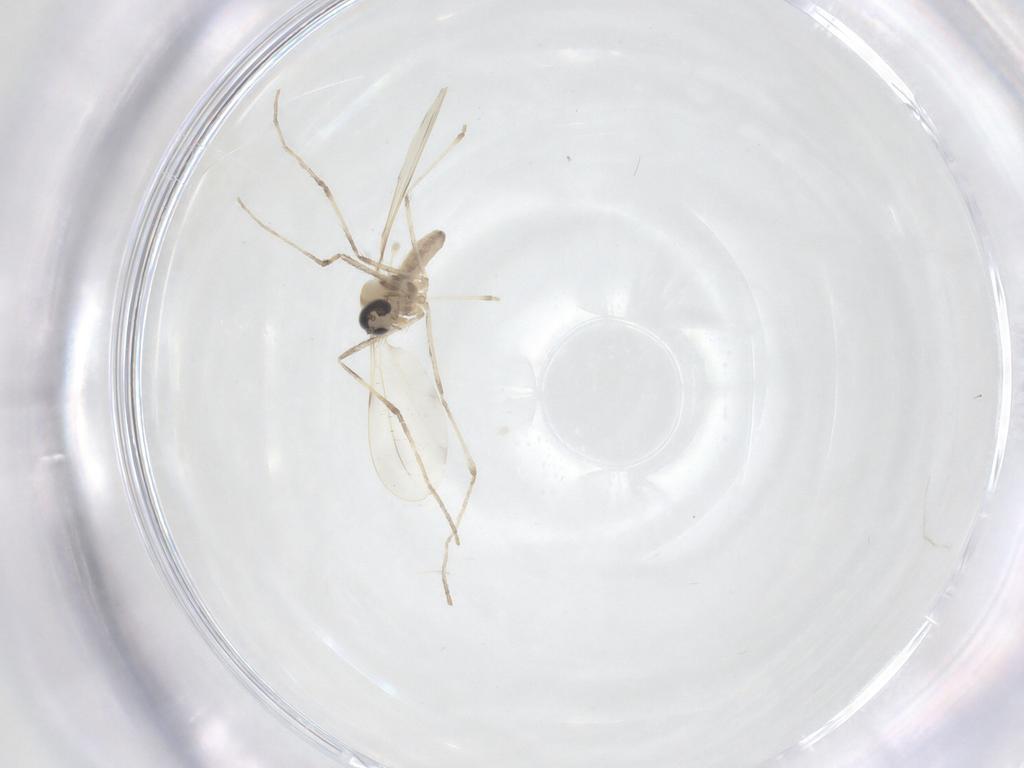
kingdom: Animalia
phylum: Arthropoda
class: Insecta
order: Diptera
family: Cecidomyiidae
